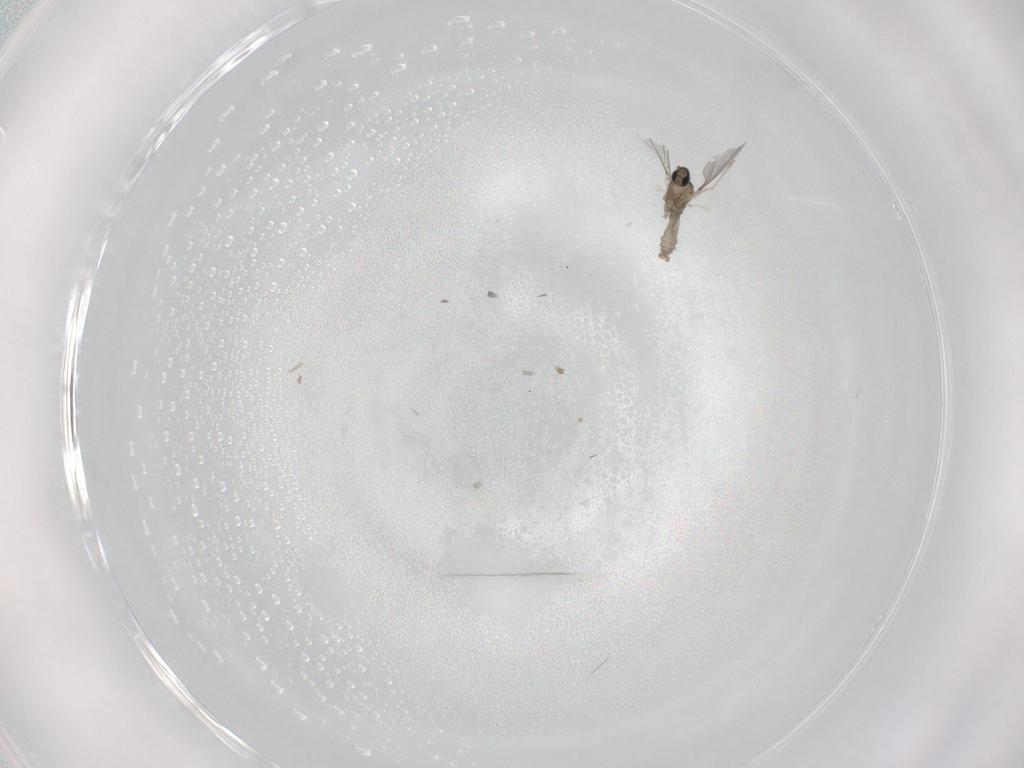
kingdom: Animalia
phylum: Arthropoda
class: Insecta
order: Diptera
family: Phoridae
